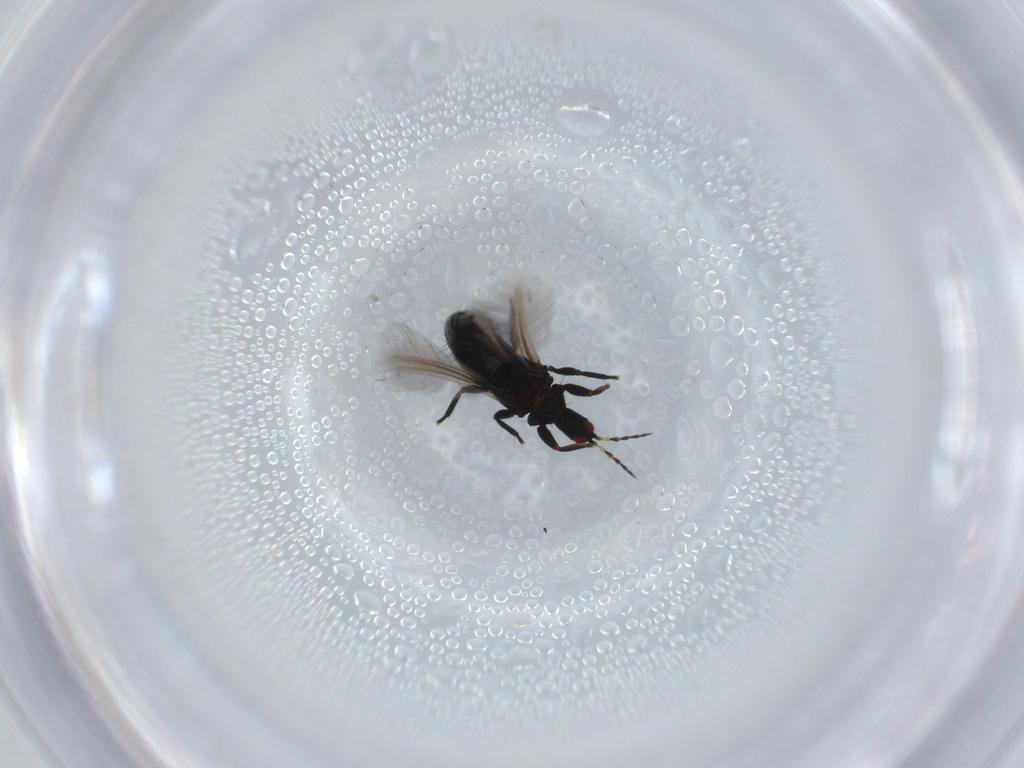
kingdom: Animalia
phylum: Arthropoda
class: Insecta
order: Thysanoptera
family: Phlaeothripidae
